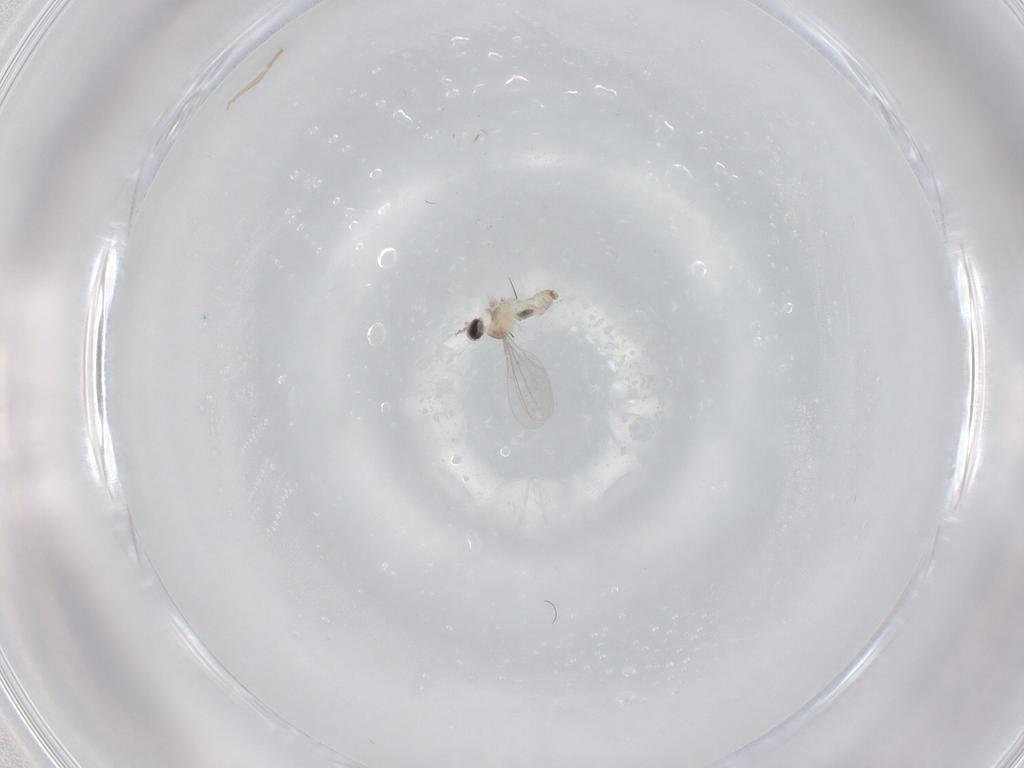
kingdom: Animalia
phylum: Arthropoda
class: Insecta
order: Diptera
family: Cecidomyiidae
